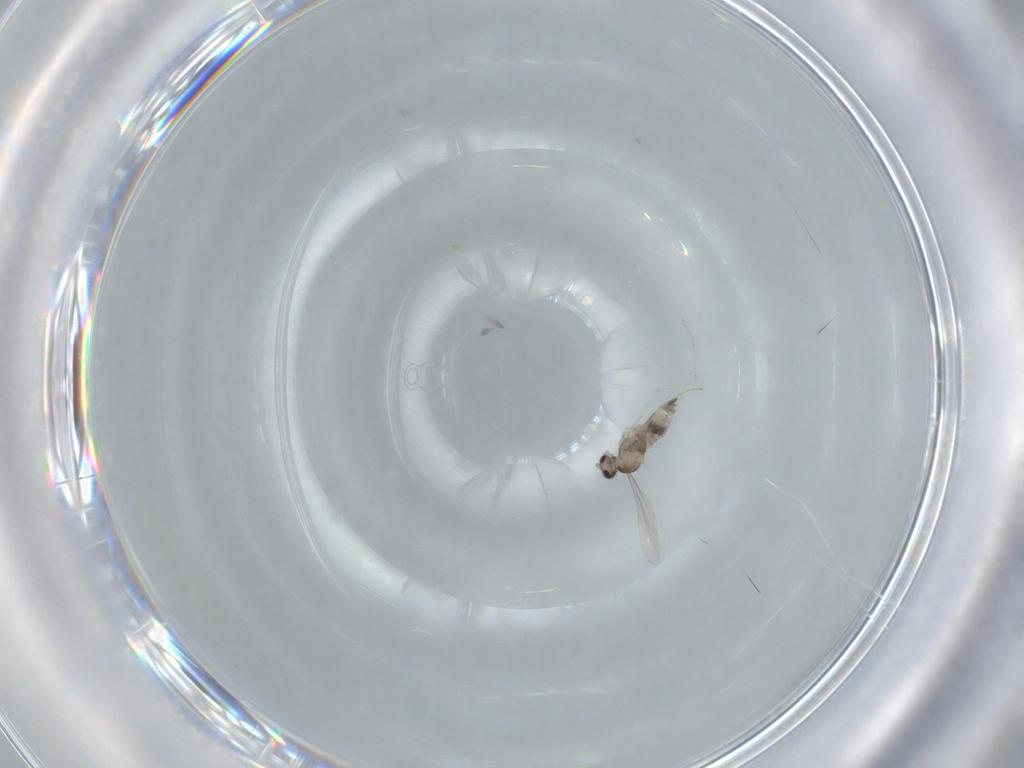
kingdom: Animalia
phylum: Arthropoda
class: Insecta
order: Diptera
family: Cecidomyiidae
